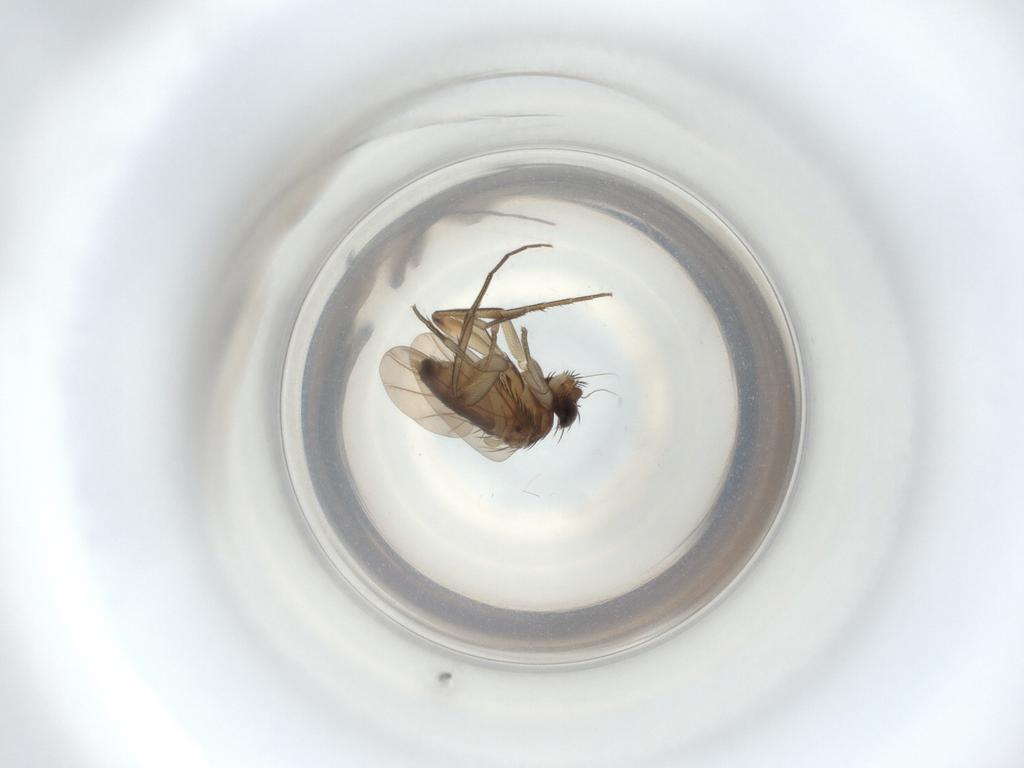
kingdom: Animalia
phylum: Arthropoda
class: Insecta
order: Diptera
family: Phoridae
